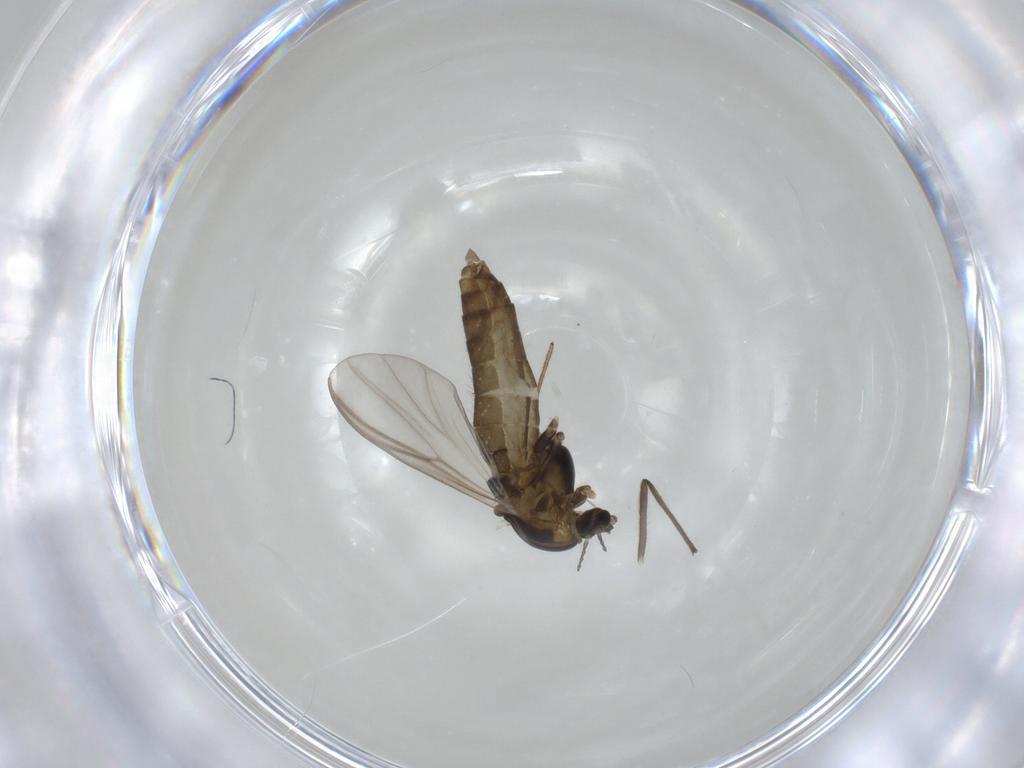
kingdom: Animalia
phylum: Arthropoda
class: Insecta
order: Diptera
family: Chironomidae
